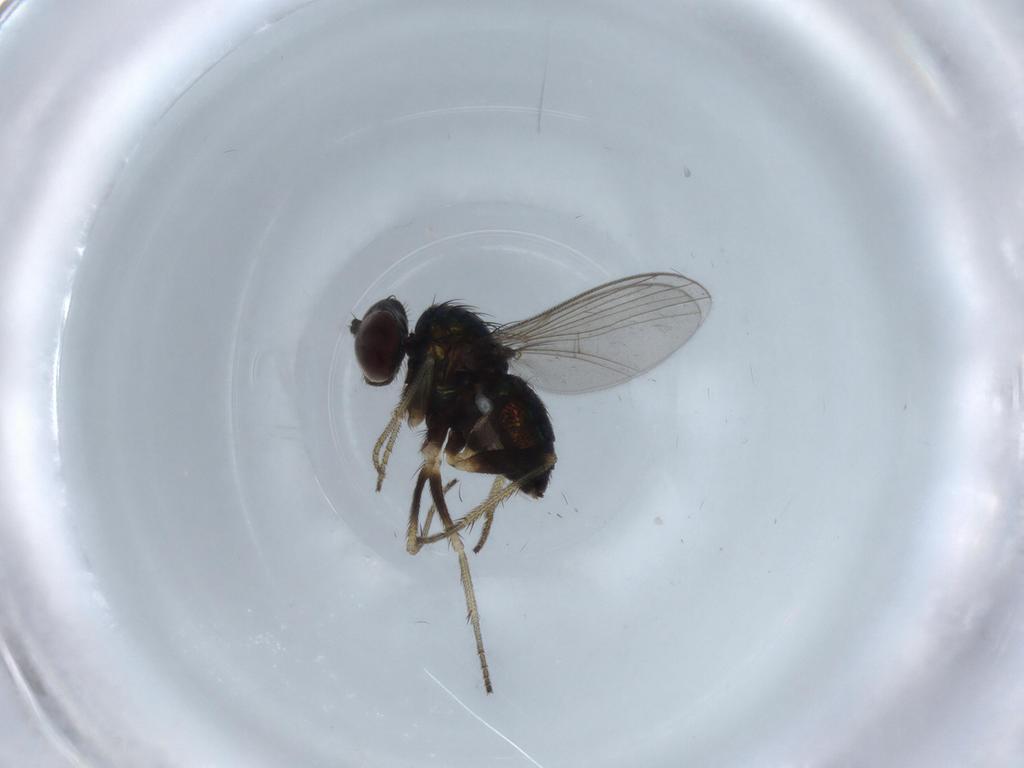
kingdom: Animalia
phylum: Arthropoda
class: Insecta
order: Diptera
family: Dolichopodidae
